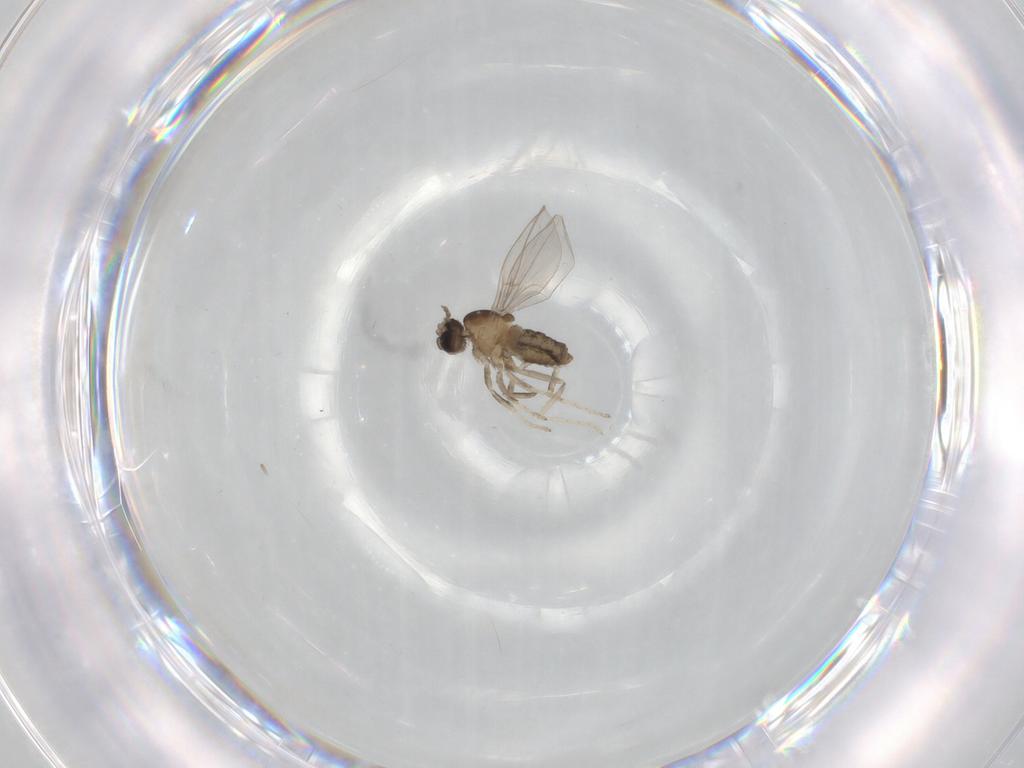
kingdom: Animalia
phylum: Arthropoda
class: Insecta
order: Diptera
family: Cecidomyiidae
